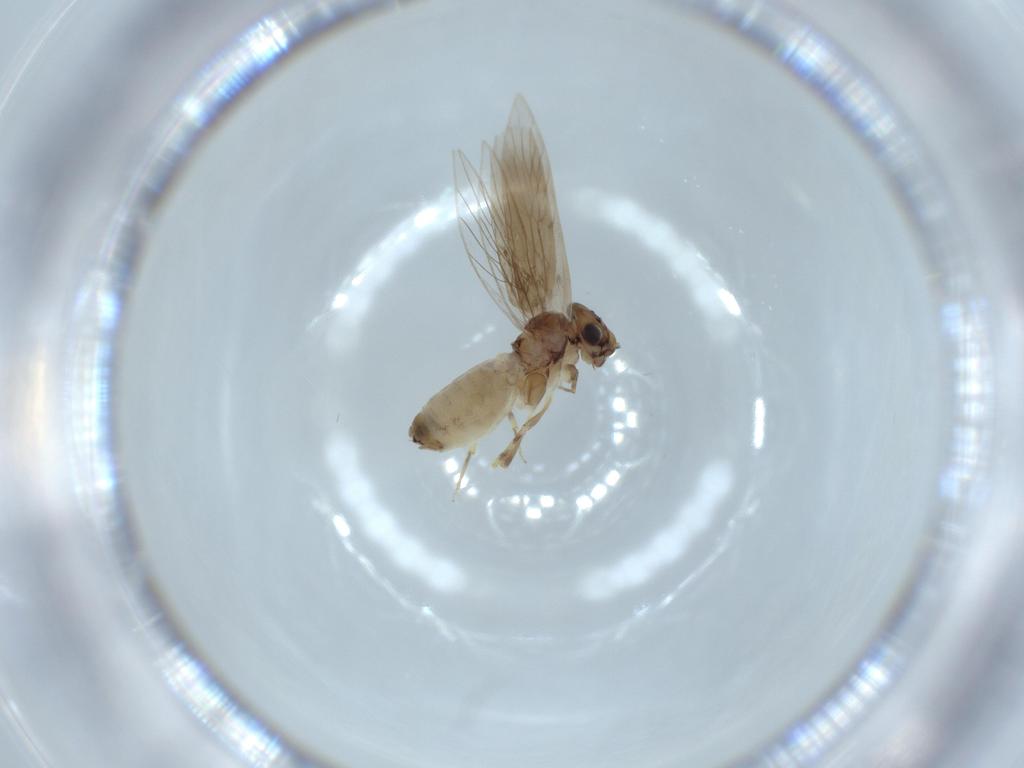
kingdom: Animalia
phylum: Arthropoda
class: Insecta
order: Psocodea
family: Lepidopsocidae
